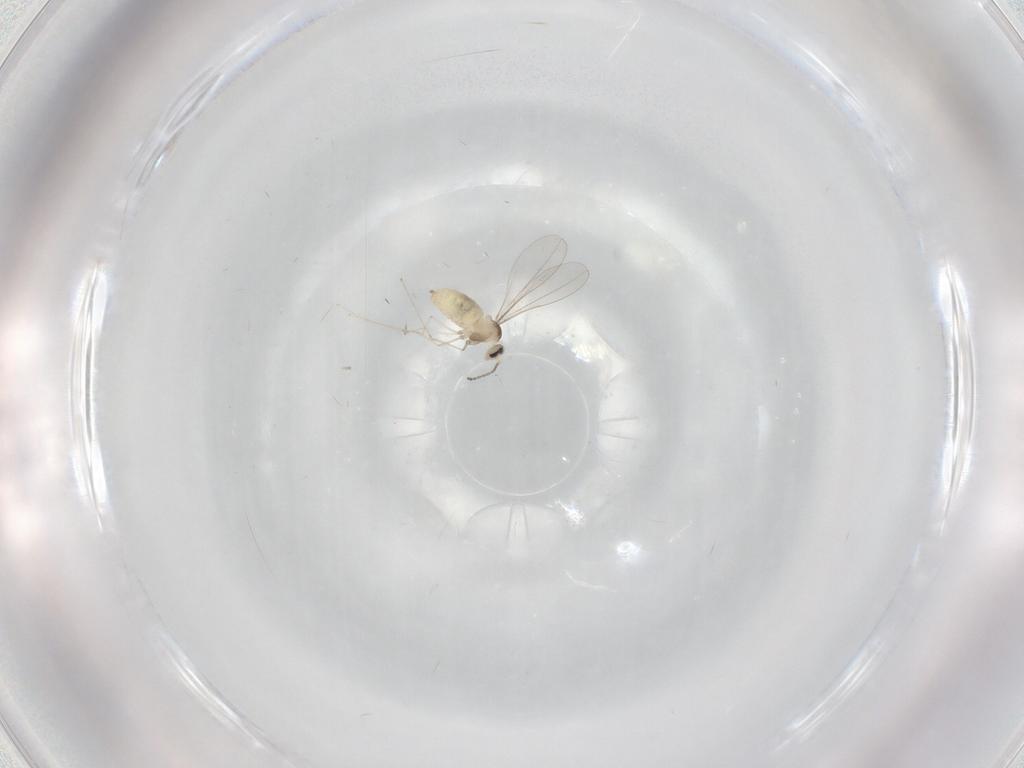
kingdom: Animalia
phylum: Arthropoda
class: Insecta
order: Diptera
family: Cecidomyiidae
